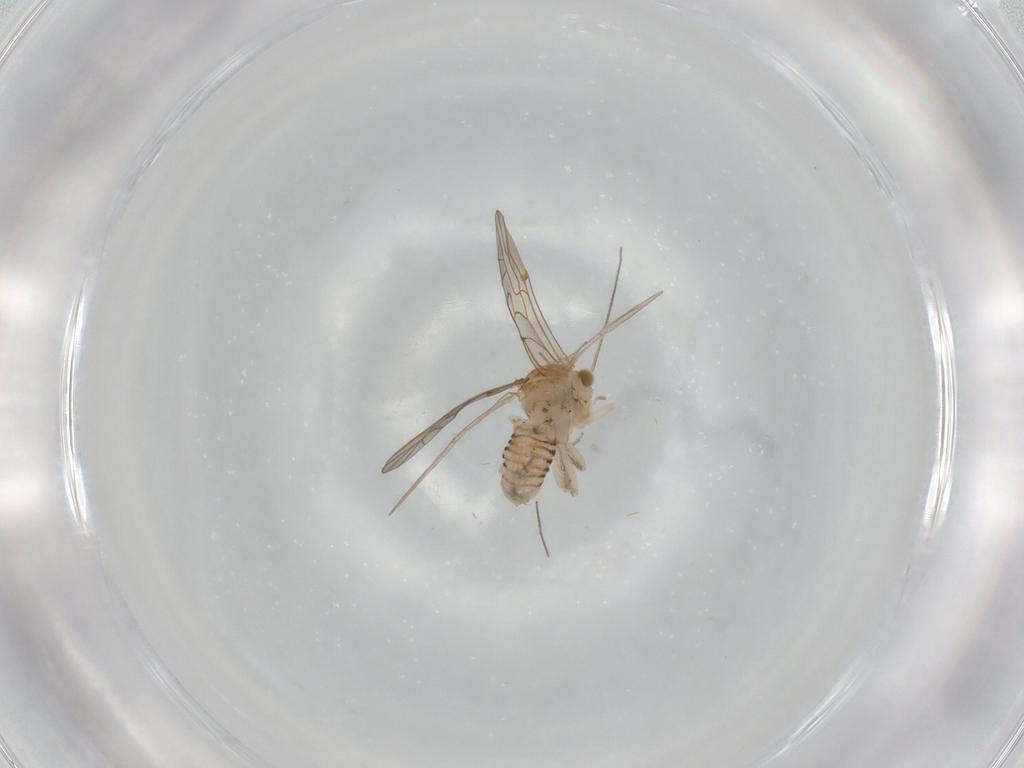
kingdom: Animalia
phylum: Arthropoda
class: Insecta
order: Psocodea
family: Lachesillidae
